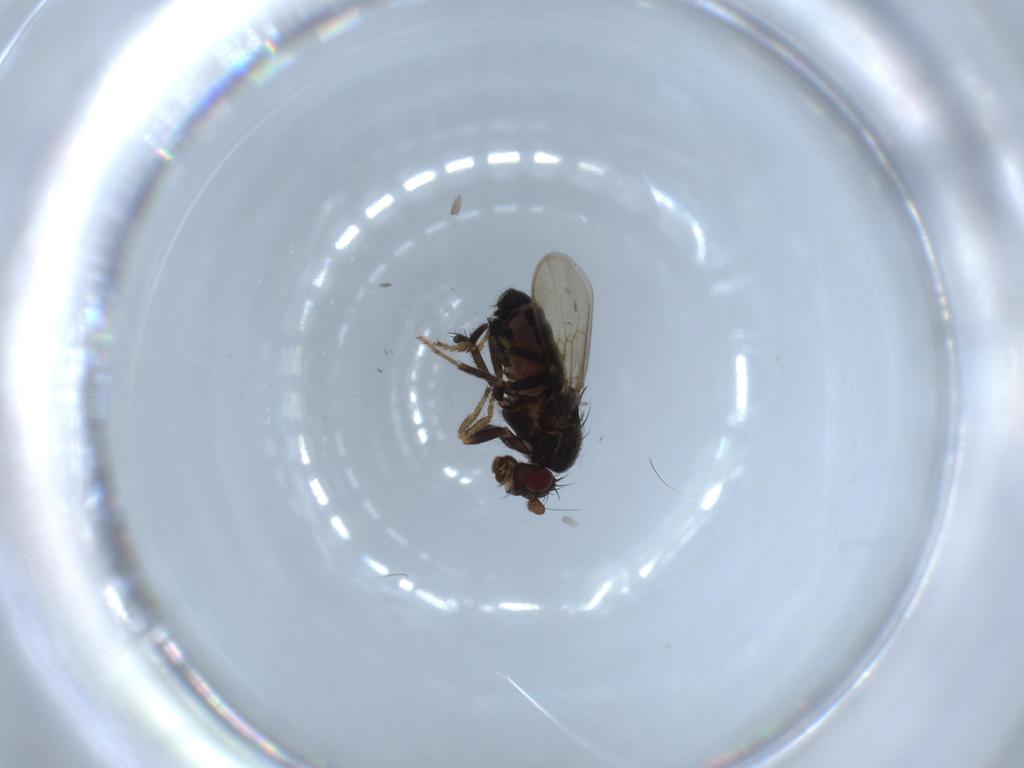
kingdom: Animalia
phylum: Arthropoda
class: Insecta
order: Diptera
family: Sphaeroceridae
